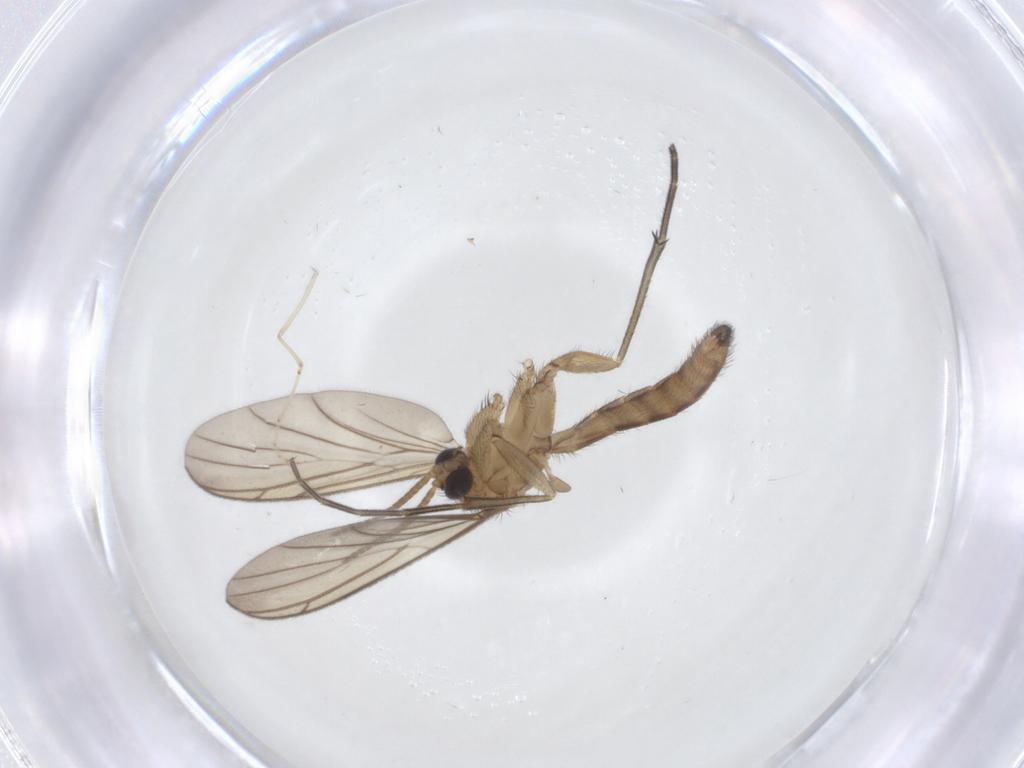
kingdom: Animalia
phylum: Arthropoda
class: Insecta
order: Diptera
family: Keroplatidae
